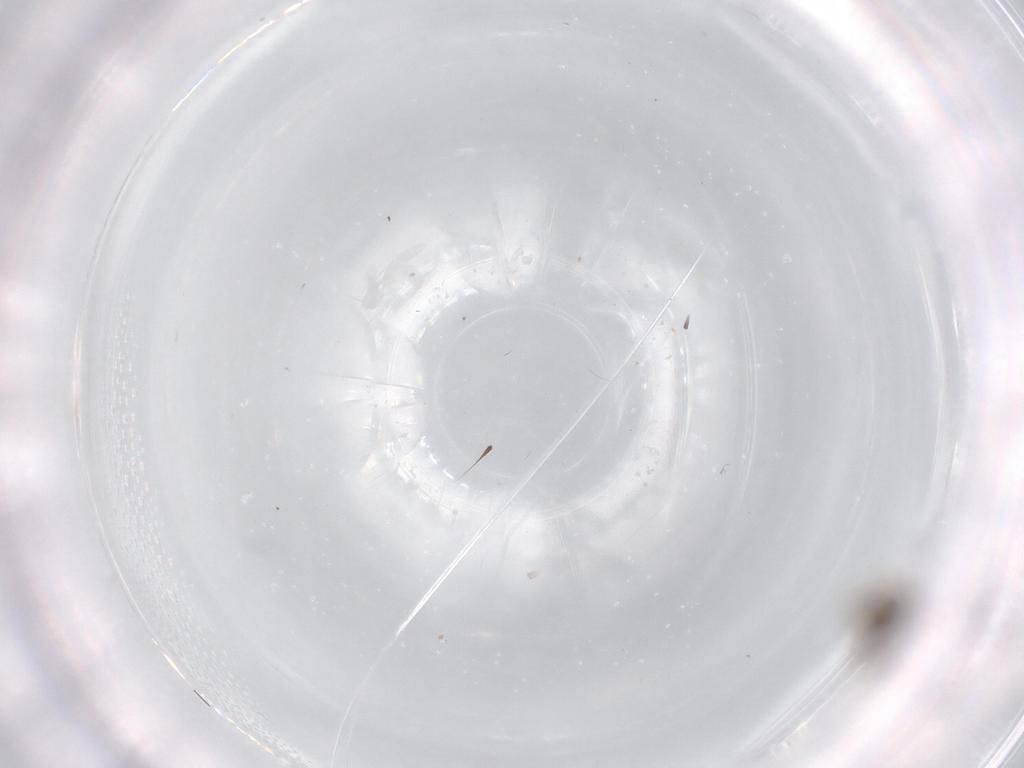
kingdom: Animalia
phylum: Arthropoda
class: Insecta
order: Diptera
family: Cecidomyiidae
